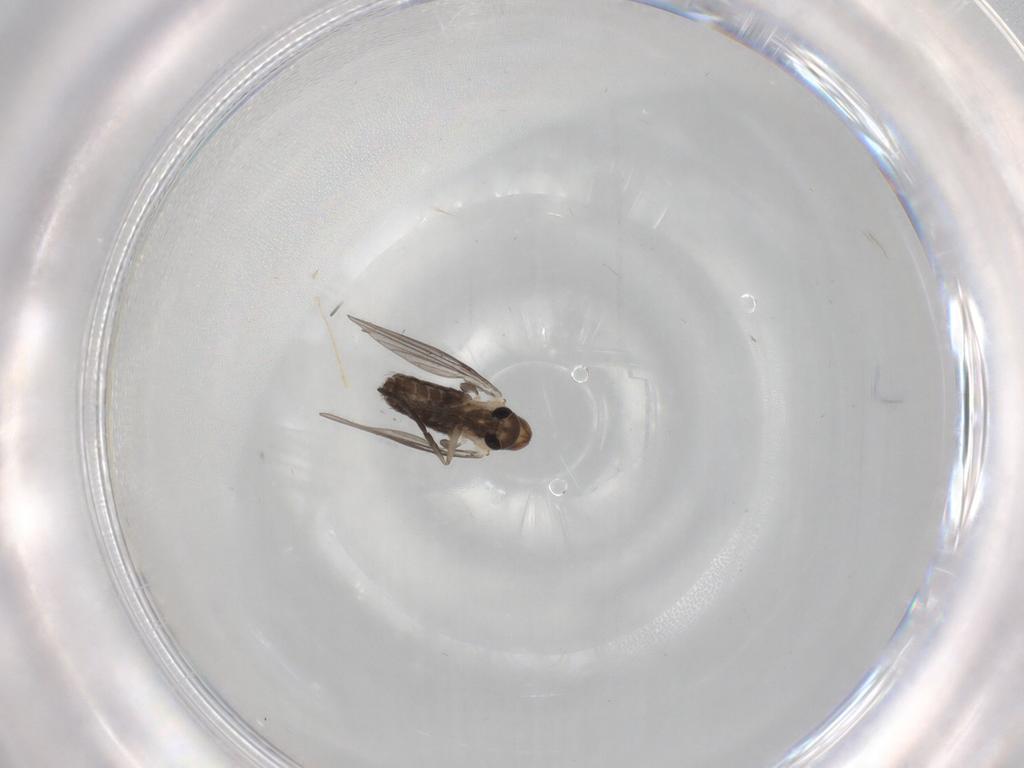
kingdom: Animalia
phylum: Arthropoda
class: Insecta
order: Diptera
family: Psychodidae
